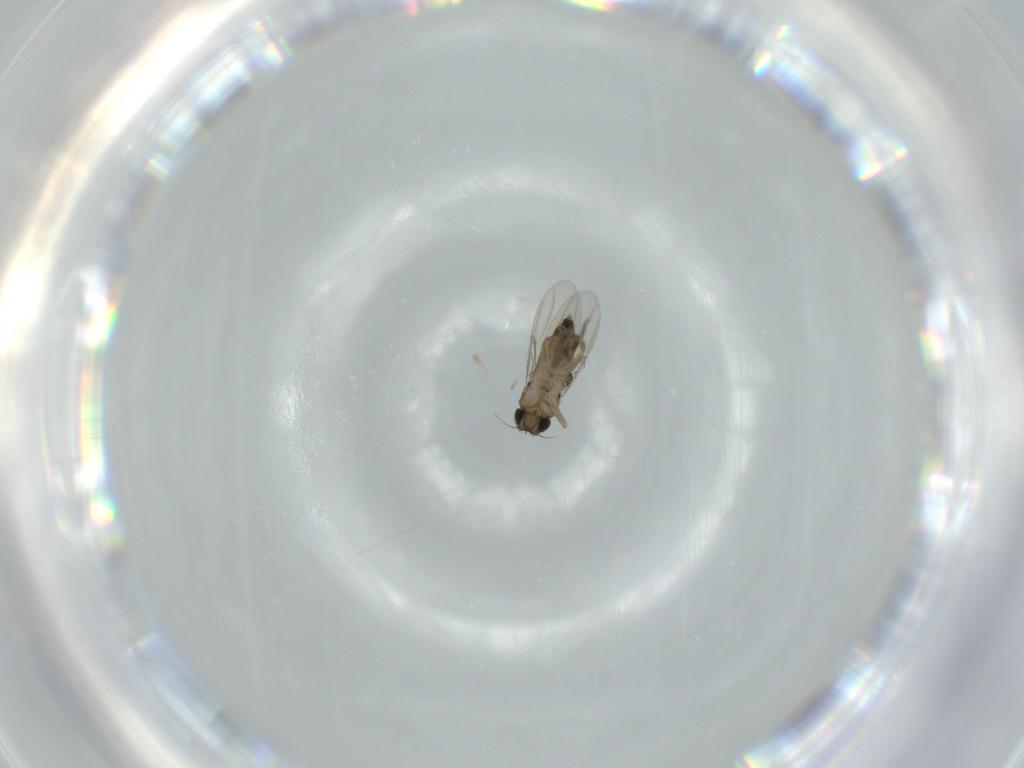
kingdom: Animalia
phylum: Arthropoda
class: Insecta
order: Diptera
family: Phoridae
